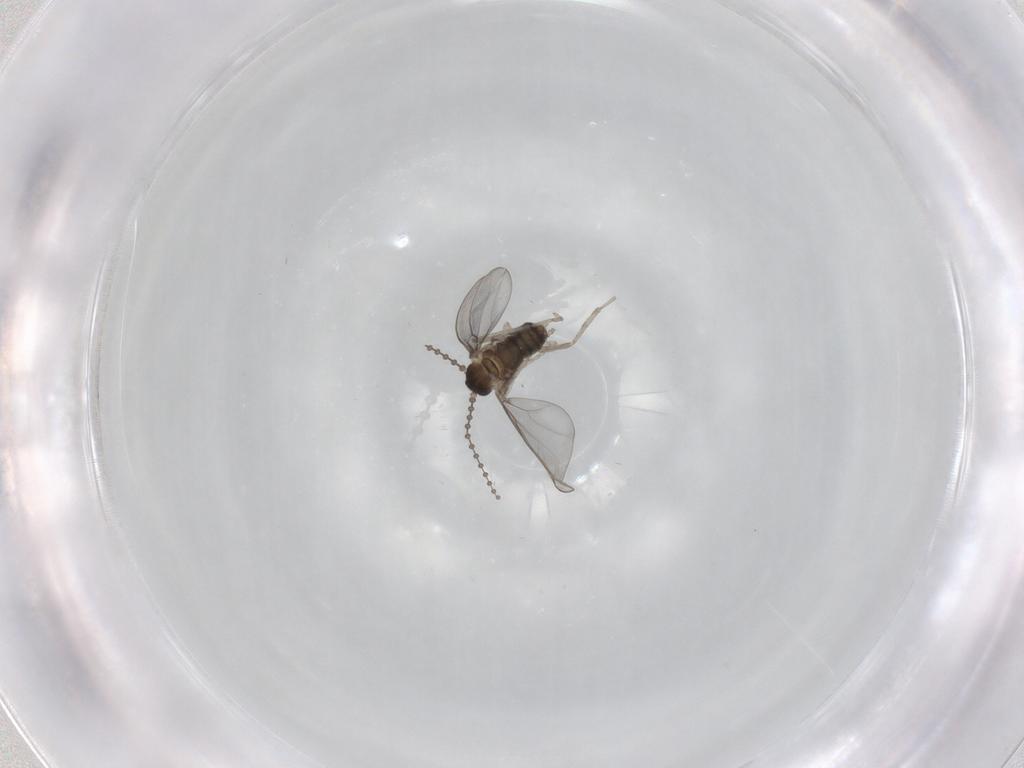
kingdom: Animalia
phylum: Arthropoda
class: Insecta
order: Diptera
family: Cecidomyiidae
